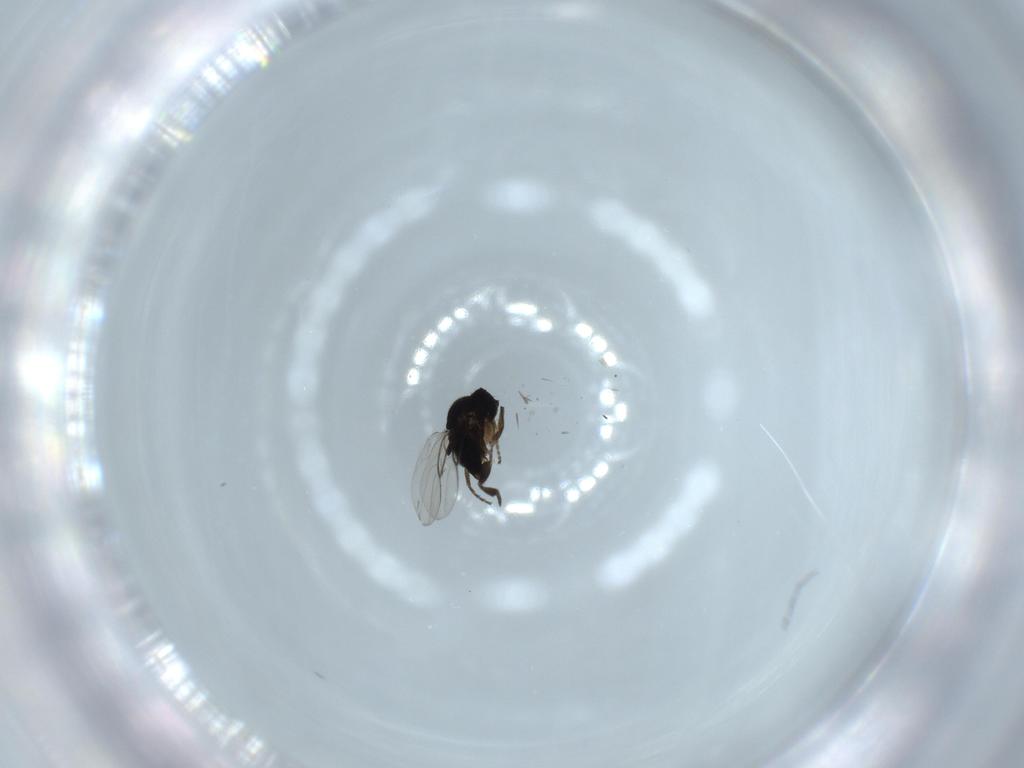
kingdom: Animalia
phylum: Arthropoda
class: Insecta
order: Diptera
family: Phoridae
